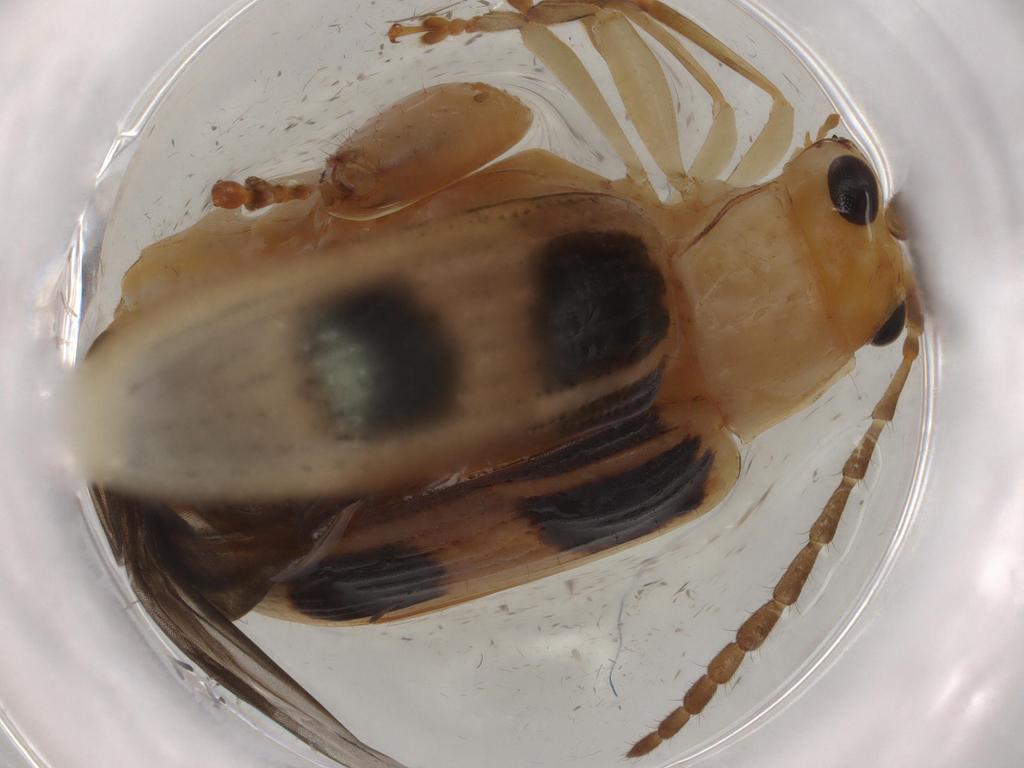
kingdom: Animalia
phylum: Arthropoda
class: Insecta
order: Coleoptera
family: Chrysomelidae
